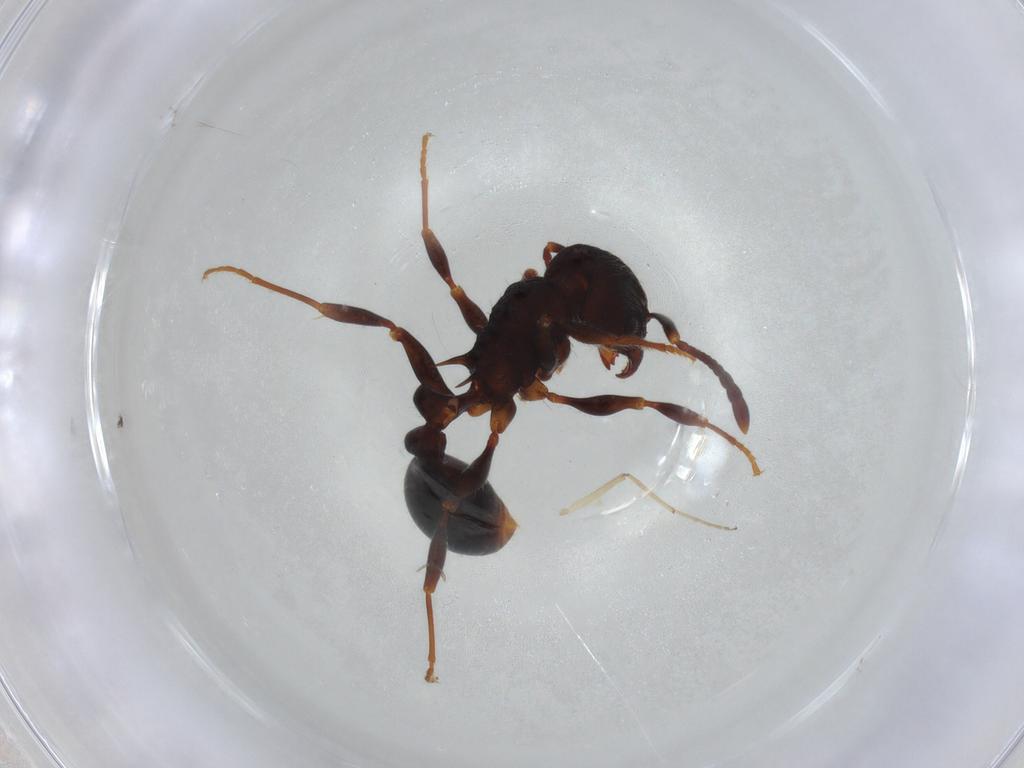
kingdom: Animalia
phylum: Arthropoda
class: Insecta
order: Hymenoptera
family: Formicidae
